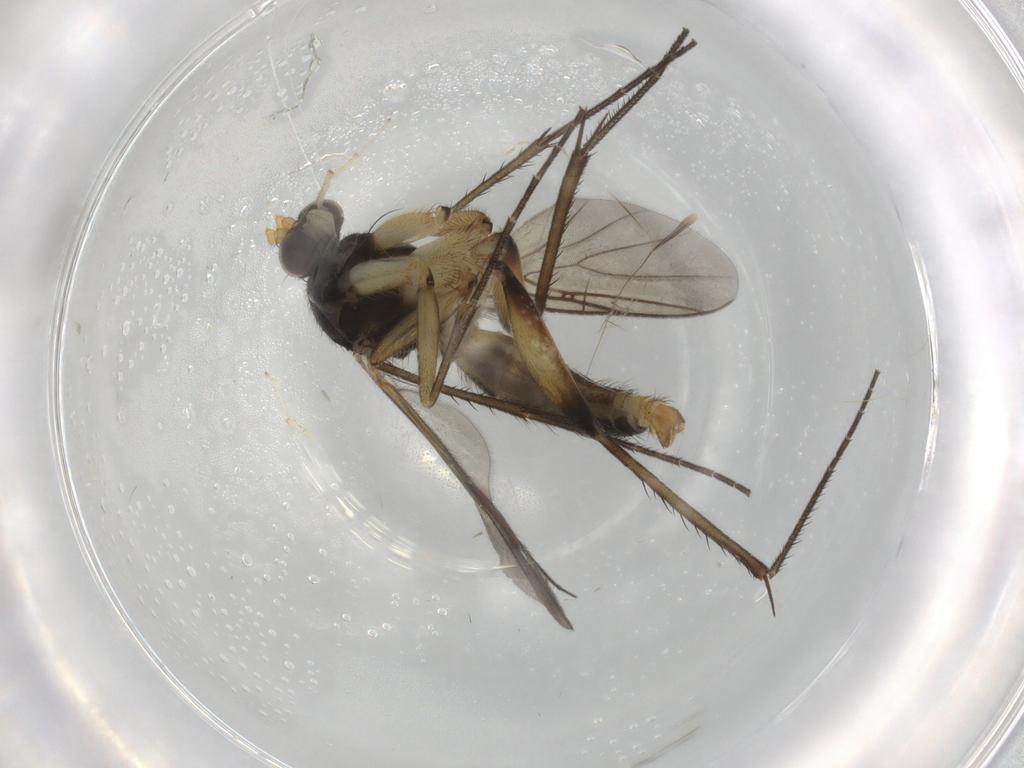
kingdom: Animalia
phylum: Arthropoda
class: Insecta
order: Diptera
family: Mycetophilidae
